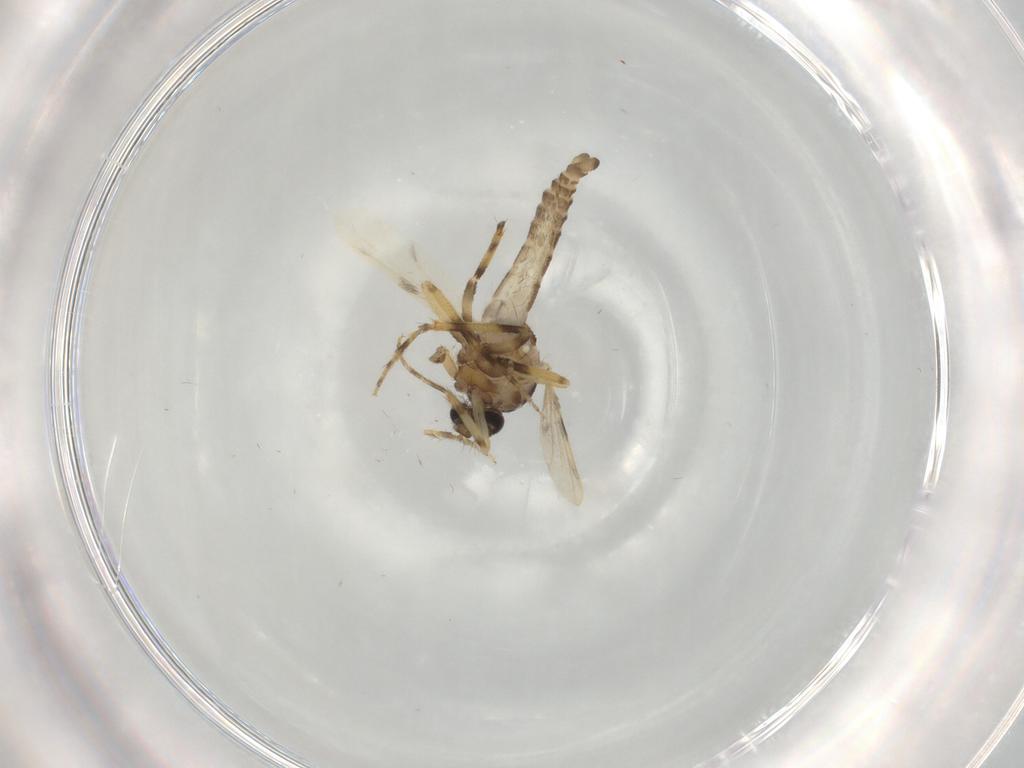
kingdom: Animalia
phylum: Arthropoda
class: Insecta
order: Diptera
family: Ceratopogonidae
